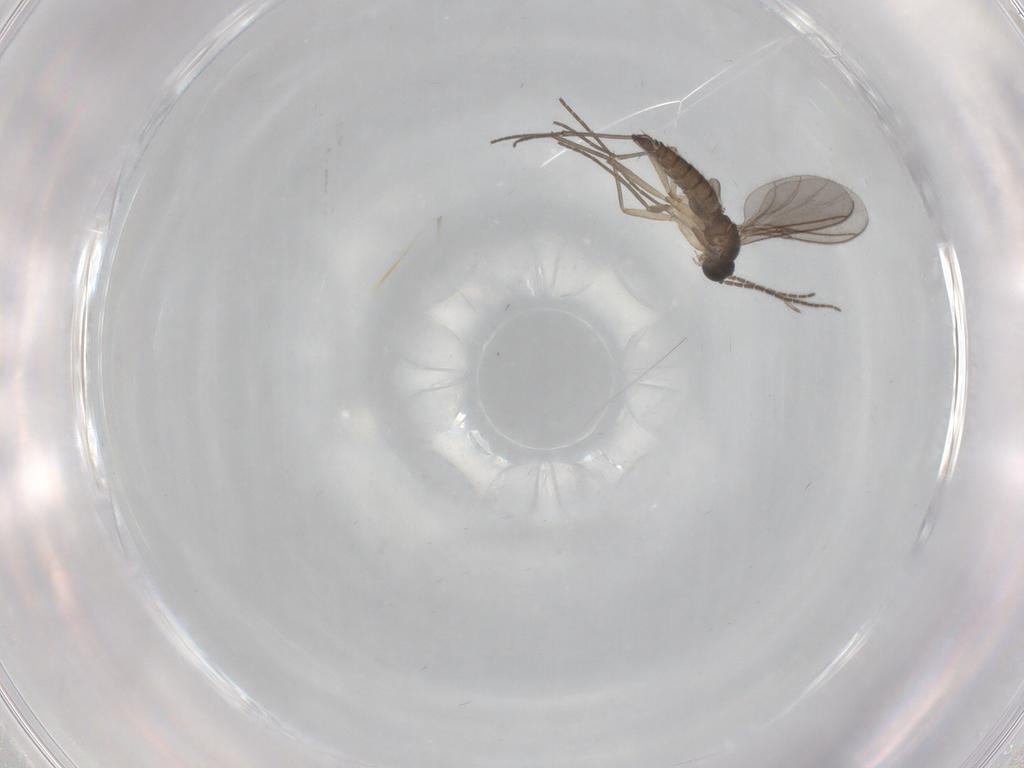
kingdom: Animalia
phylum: Arthropoda
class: Insecta
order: Diptera
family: Sciaridae
